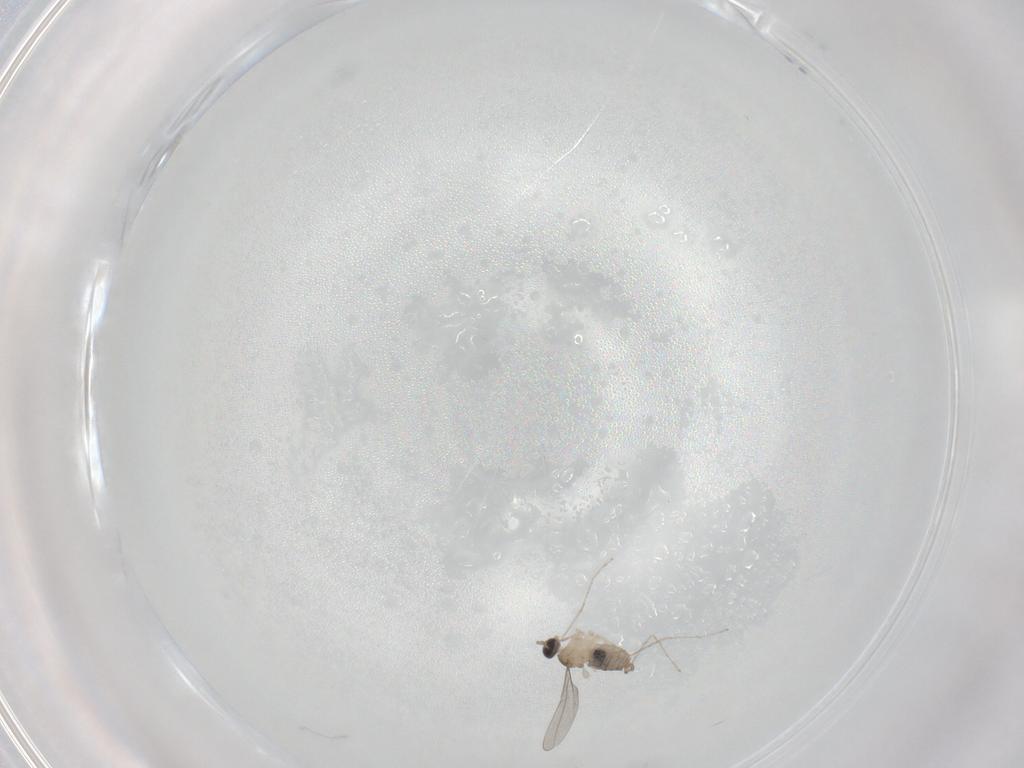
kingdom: Animalia
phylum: Arthropoda
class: Insecta
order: Diptera
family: Cecidomyiidae
